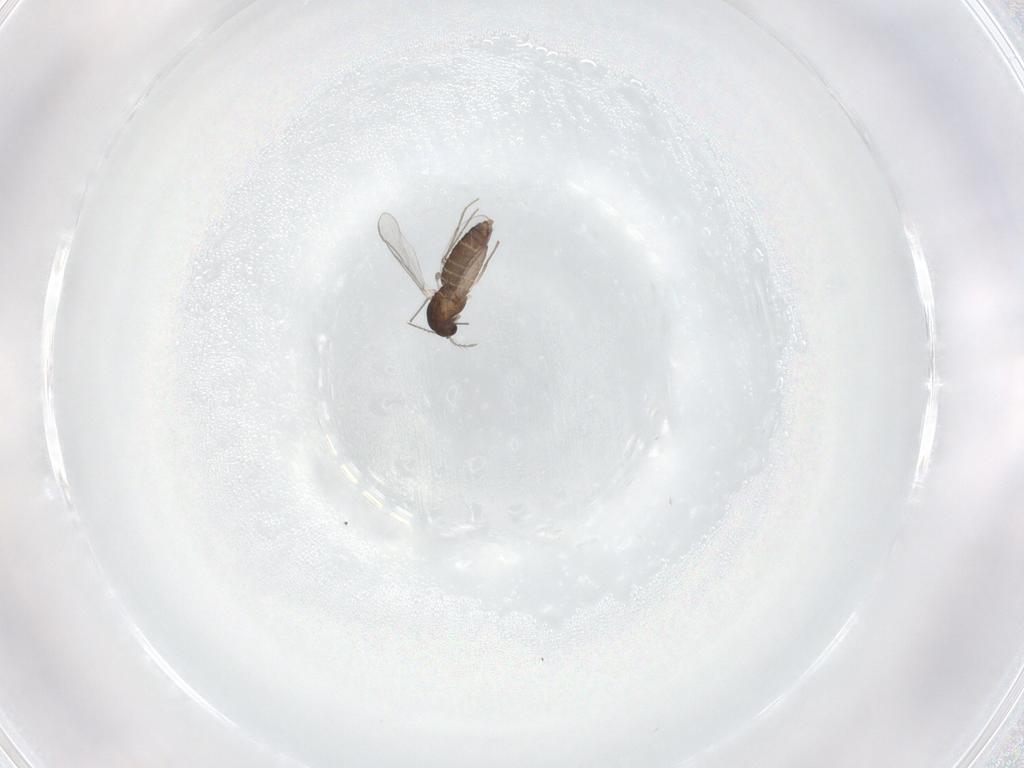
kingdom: Animalia
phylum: Arthropoda
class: Insecta
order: Diptera
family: Chironomidae
